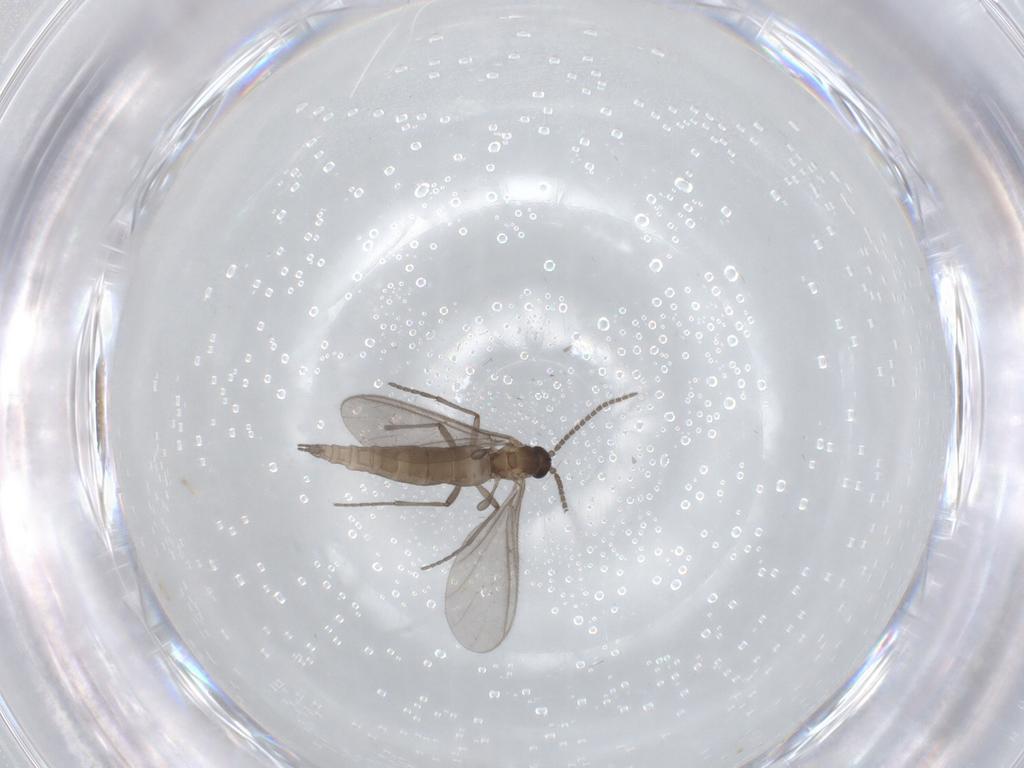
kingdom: Animalia
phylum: Arthropoda
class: Insecta
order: Diptera
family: Sciaridae
